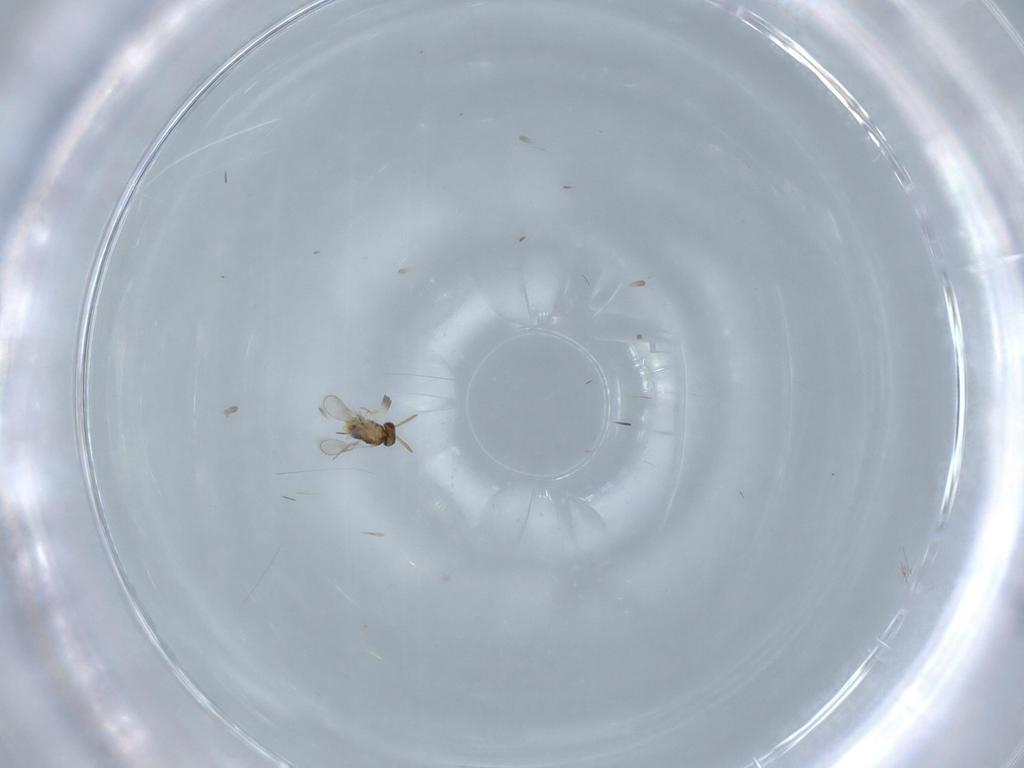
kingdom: Animalia
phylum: Arthropoda
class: Insecta
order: Hymenoptera
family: Aphelinidae
